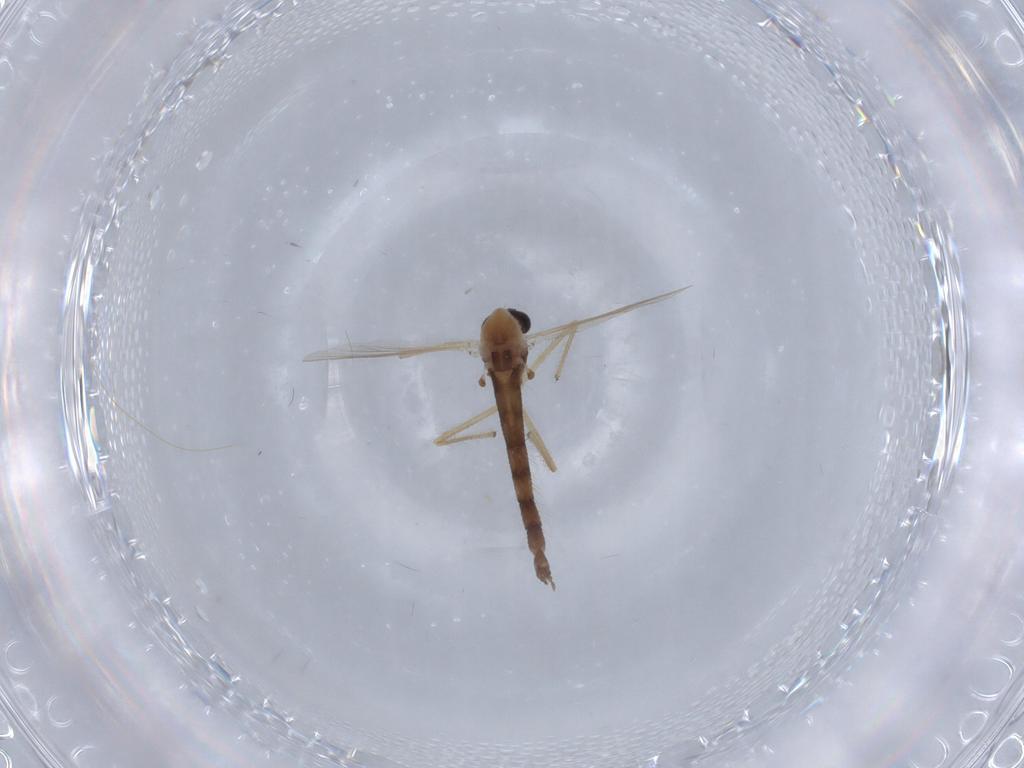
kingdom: Animalia
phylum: Arthropoda
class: Insecta
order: Diptera
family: Chironomidae
